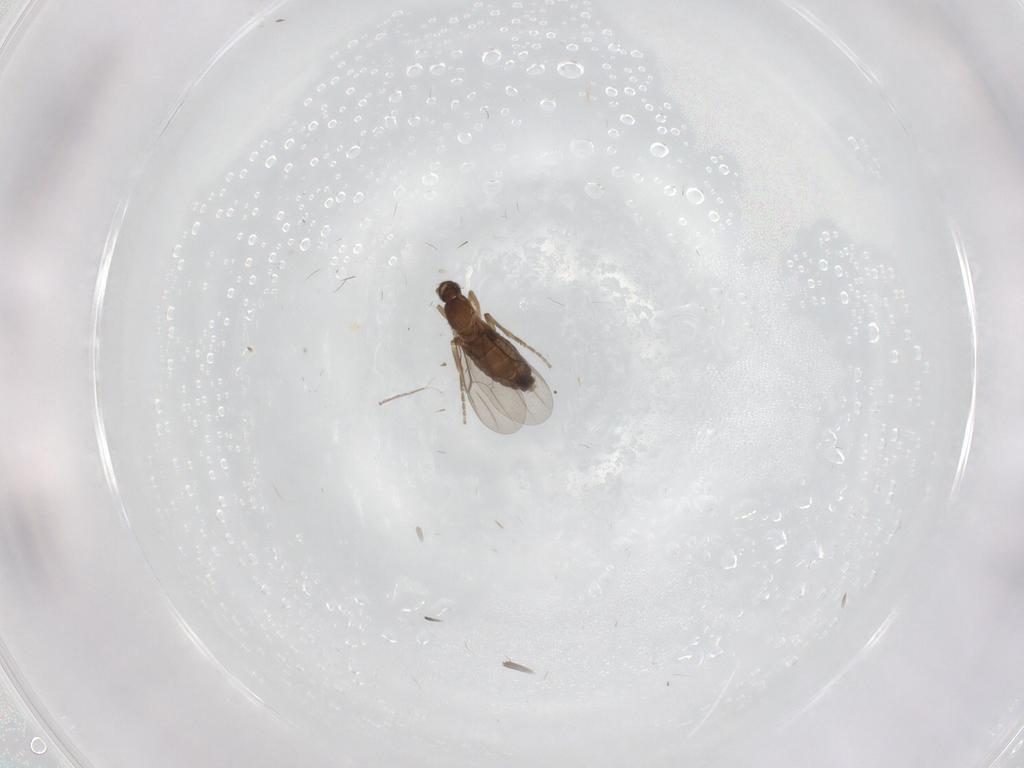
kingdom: Animalia
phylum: Arthropoda
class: Insecta
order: Diptera
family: Phoridae
